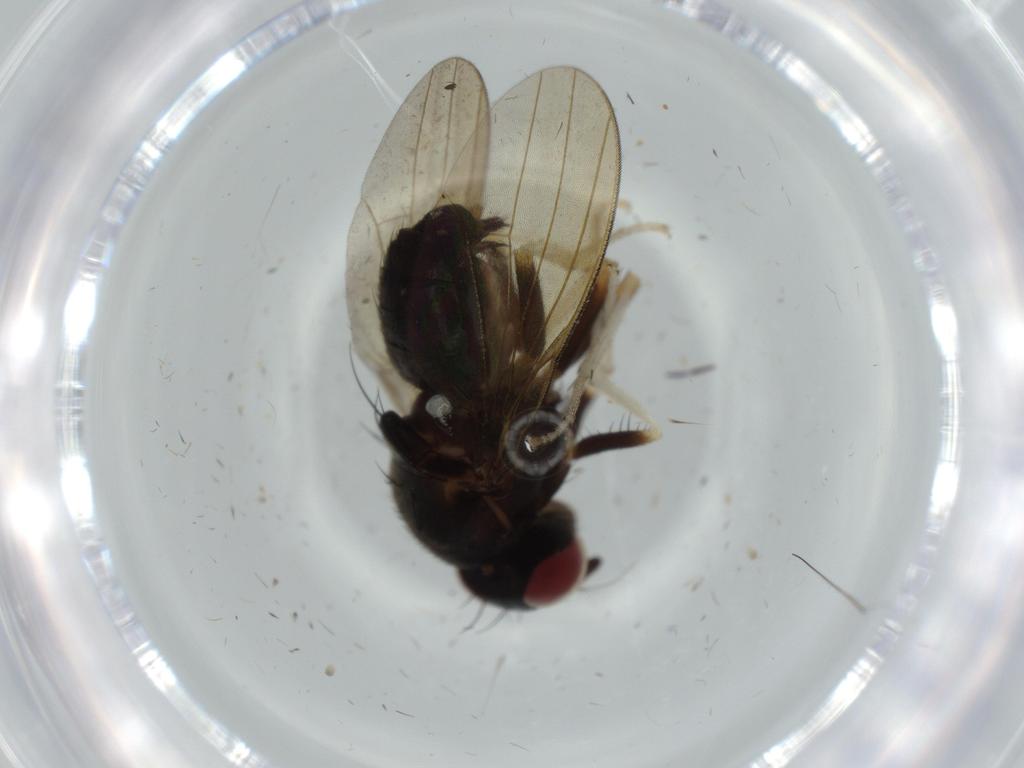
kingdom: Animalia
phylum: Arthropoda
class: Insecta
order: Diptera
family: Lauxaniidae
